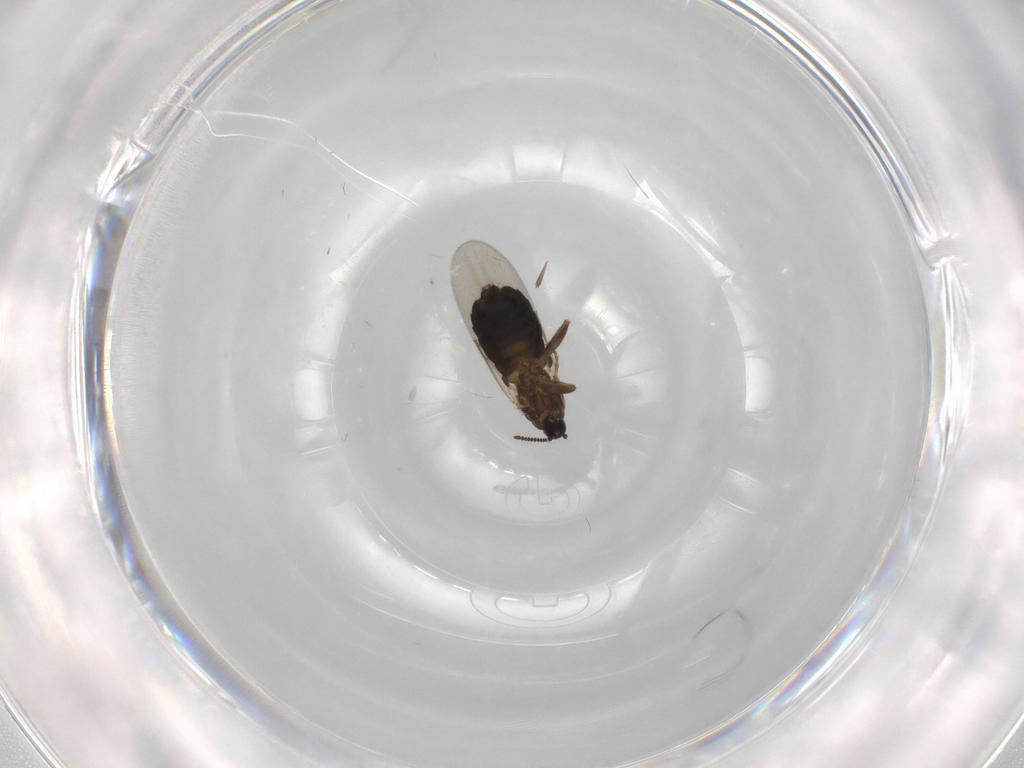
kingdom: Animalia
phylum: Arthropoda
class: Insecta
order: Diptera
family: Scatopsidae
